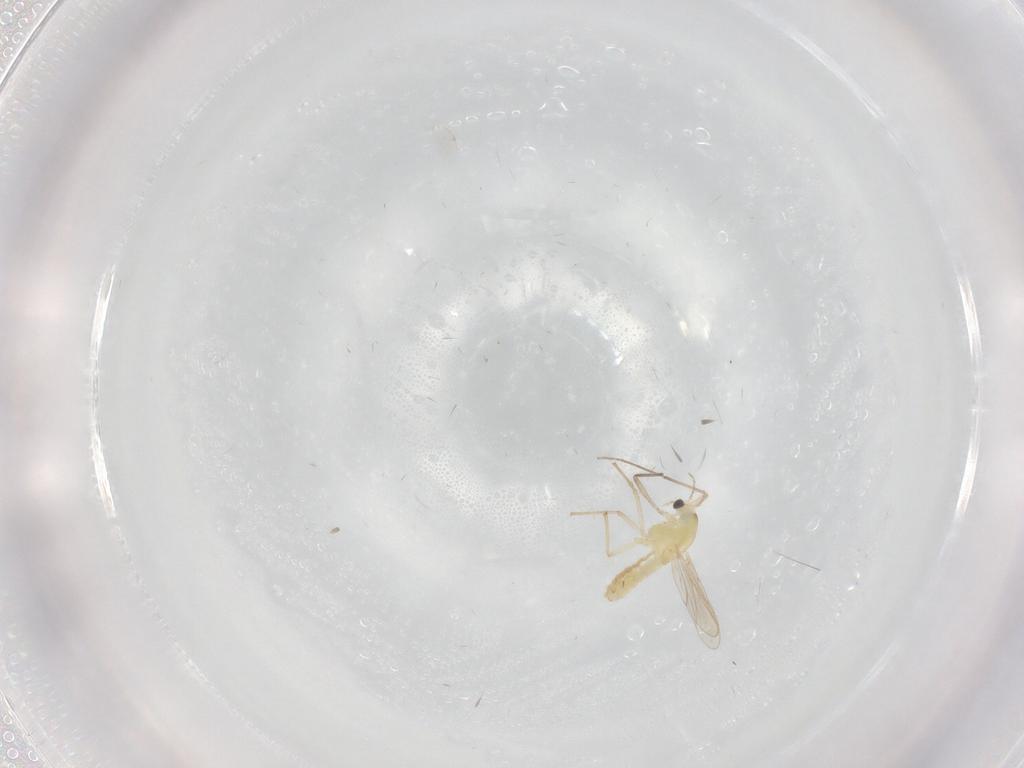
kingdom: Animalia
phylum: Arthropoda
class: Insecta
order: Diptera
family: Chironomidae
